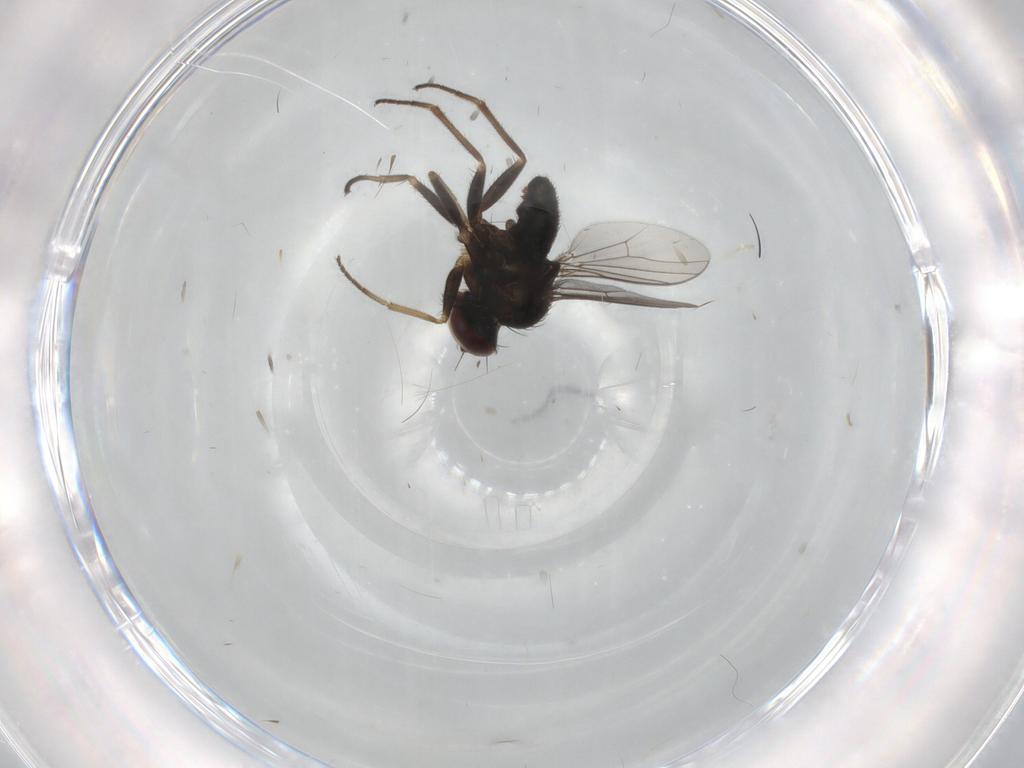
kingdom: Animalia
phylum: Arthropoda
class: Insecta
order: Diptera
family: Dolichopodidae
